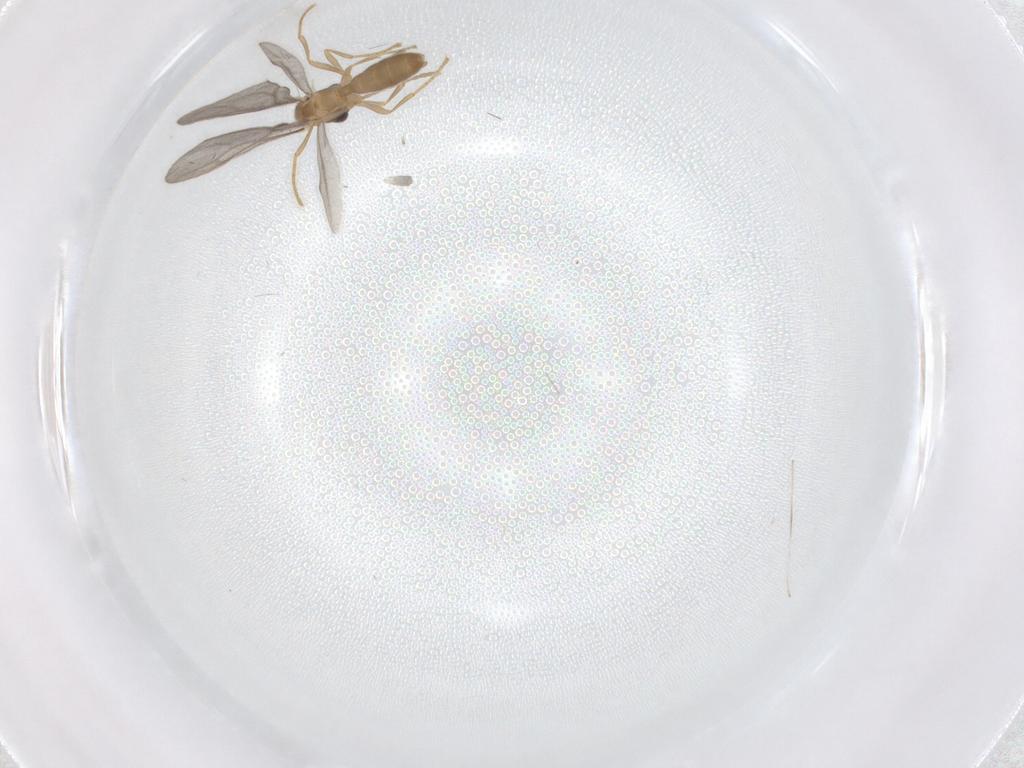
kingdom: Animalia
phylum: Arthropoda
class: Insecta
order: Hymenoptera
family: Formicidae
